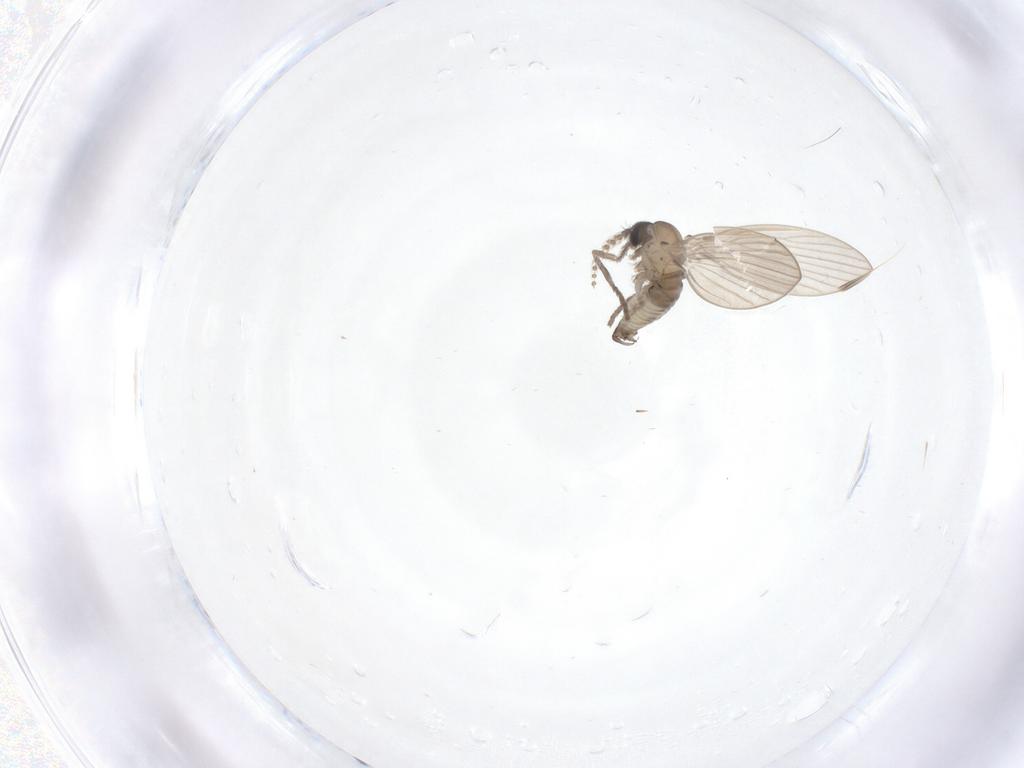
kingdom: Animalia
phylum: Arthropoda
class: Insecta
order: Diptera
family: Psychodidae
